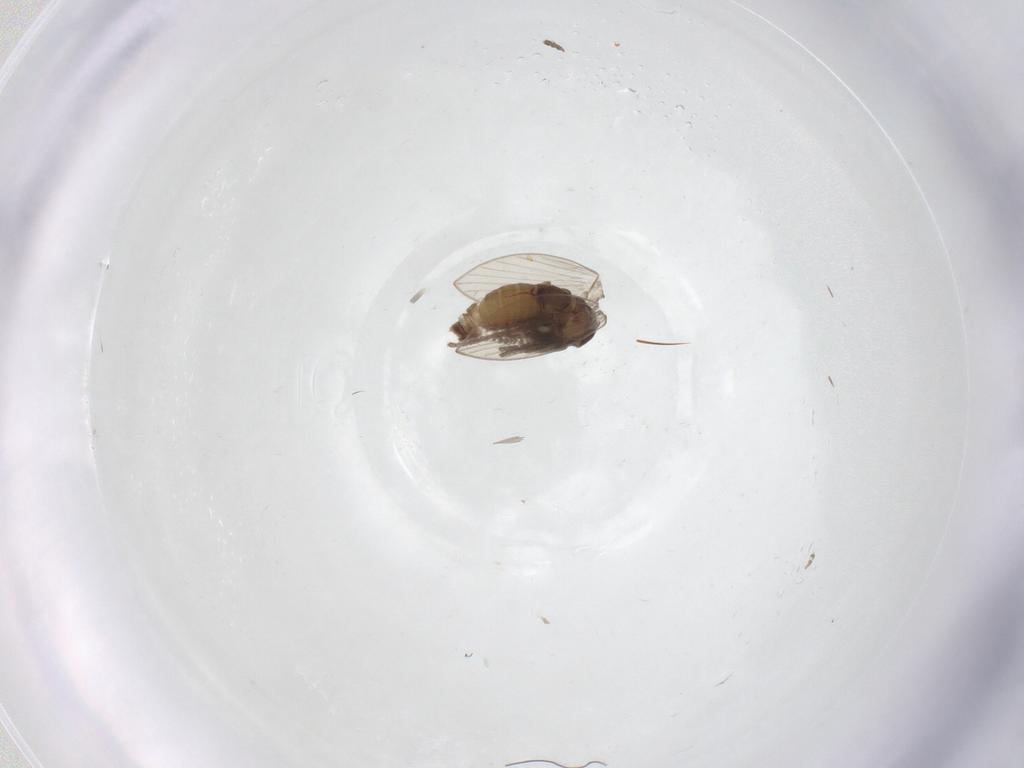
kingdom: Animalia
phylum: Arthropoda
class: Insecta
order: Diptera
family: Psychodidae
